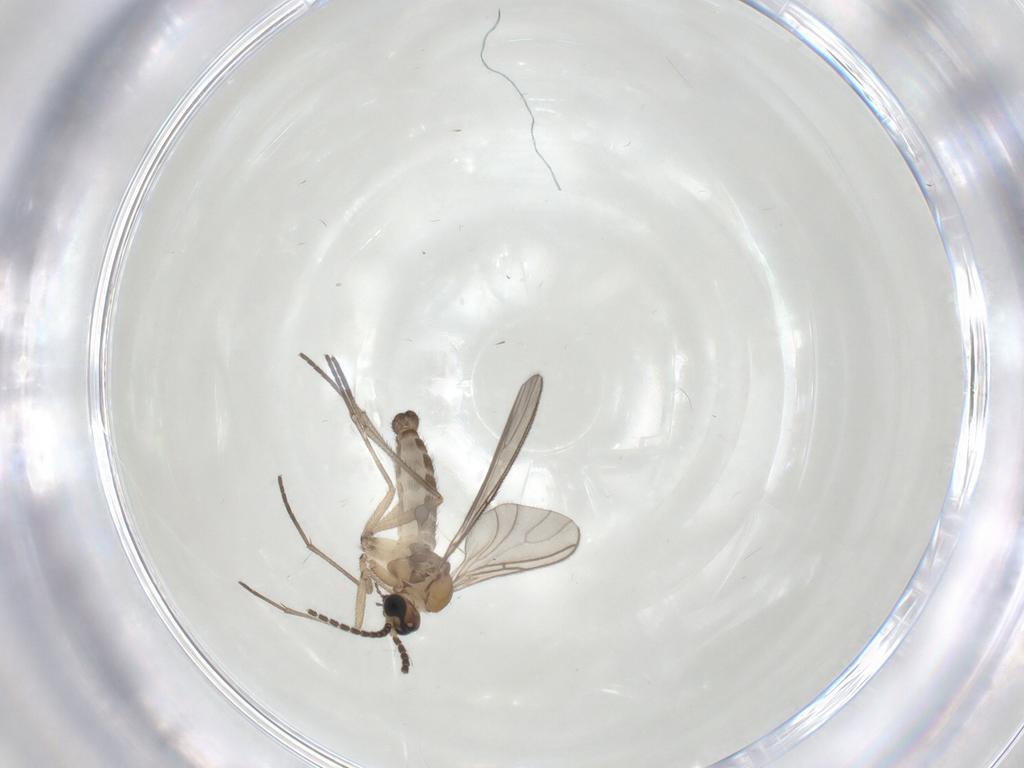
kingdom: Animalia
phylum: Arthropoda
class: Insecta
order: Diptera
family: Sciaridae
